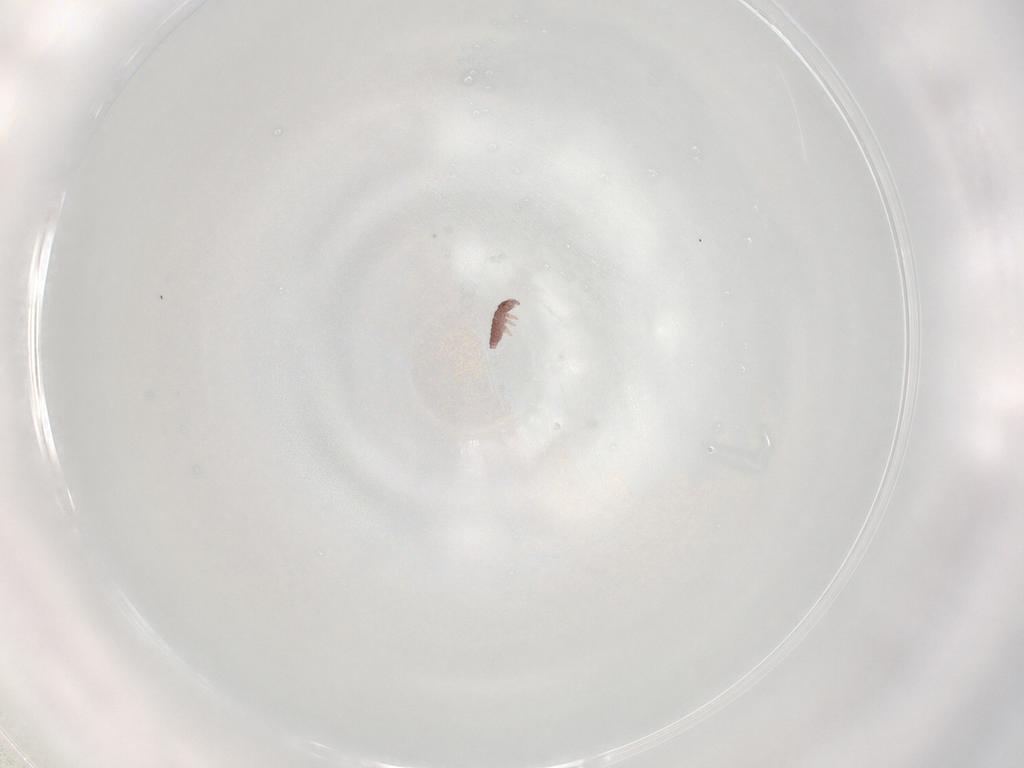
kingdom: Animalia
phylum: Arthropoda
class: Collembola
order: Poduromorpha
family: Hypogastruridae
